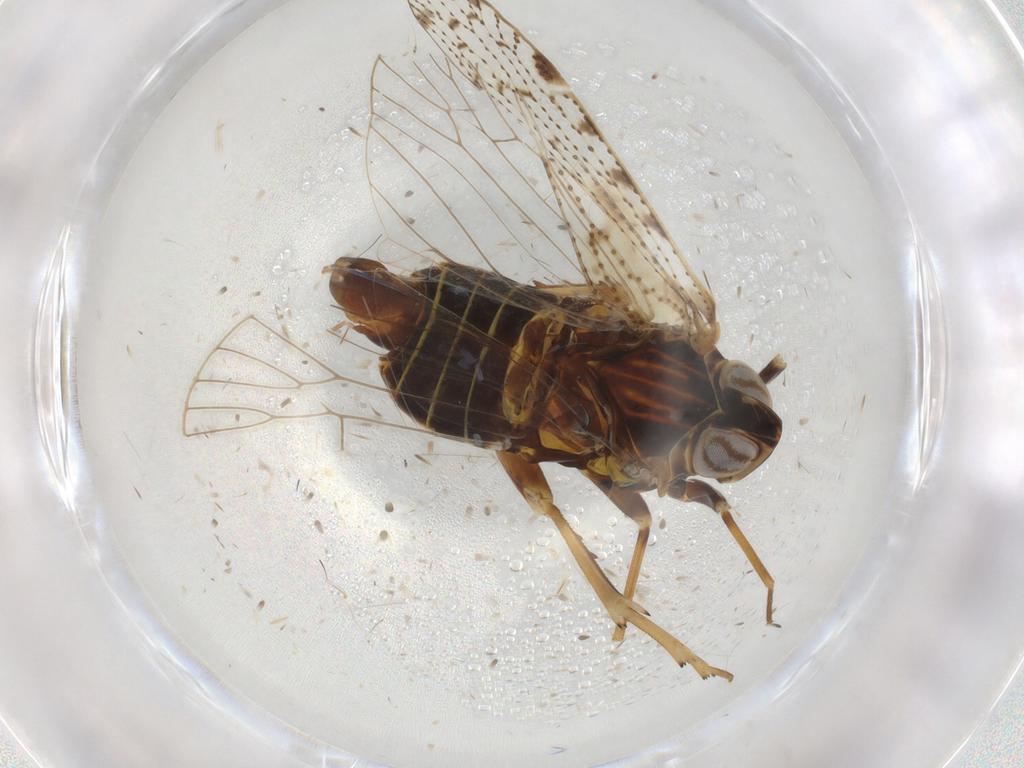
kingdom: Animalia
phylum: Arthropoda
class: Insecta
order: Hemiptera
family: Cixiidae
